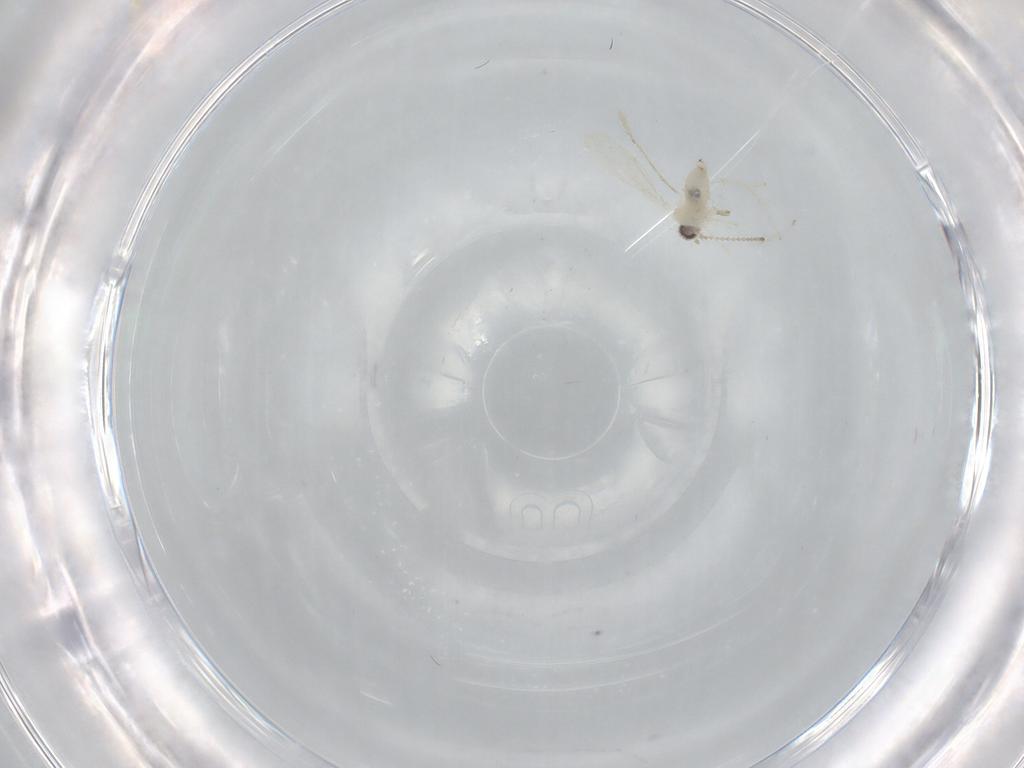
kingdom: Animalia
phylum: Arthropoda
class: Insecta
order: Diptera
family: Cecidomyiidae
